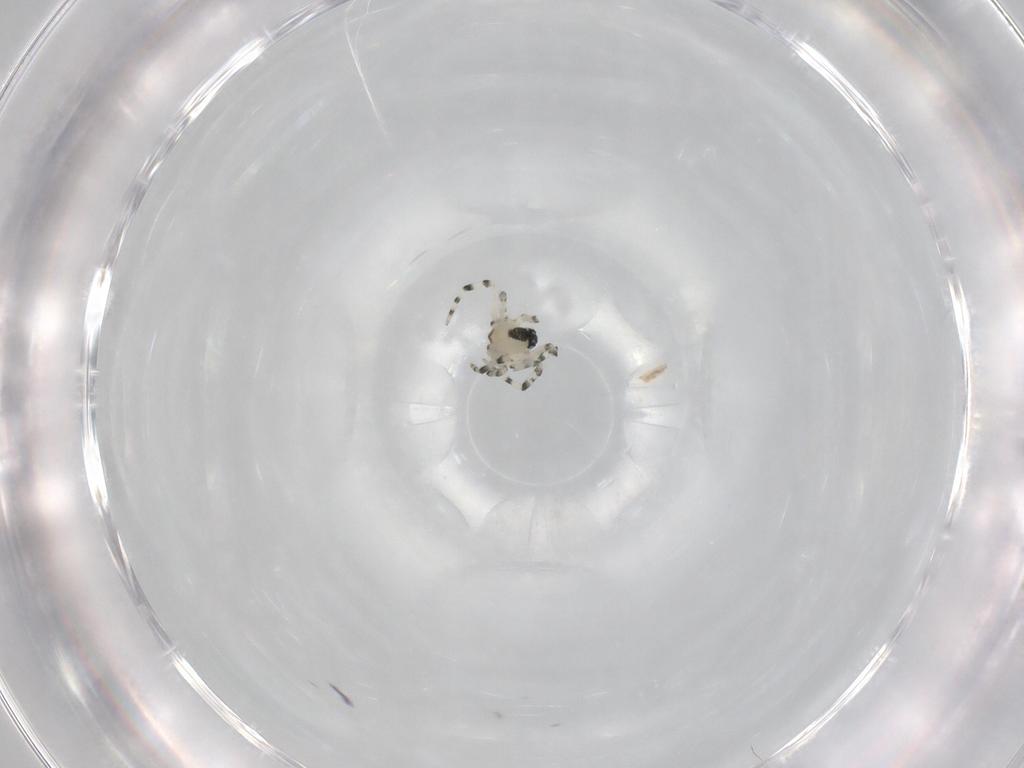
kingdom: Animalia
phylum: Arthropoda
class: Arachnida
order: Araneae
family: Mysmenidae
